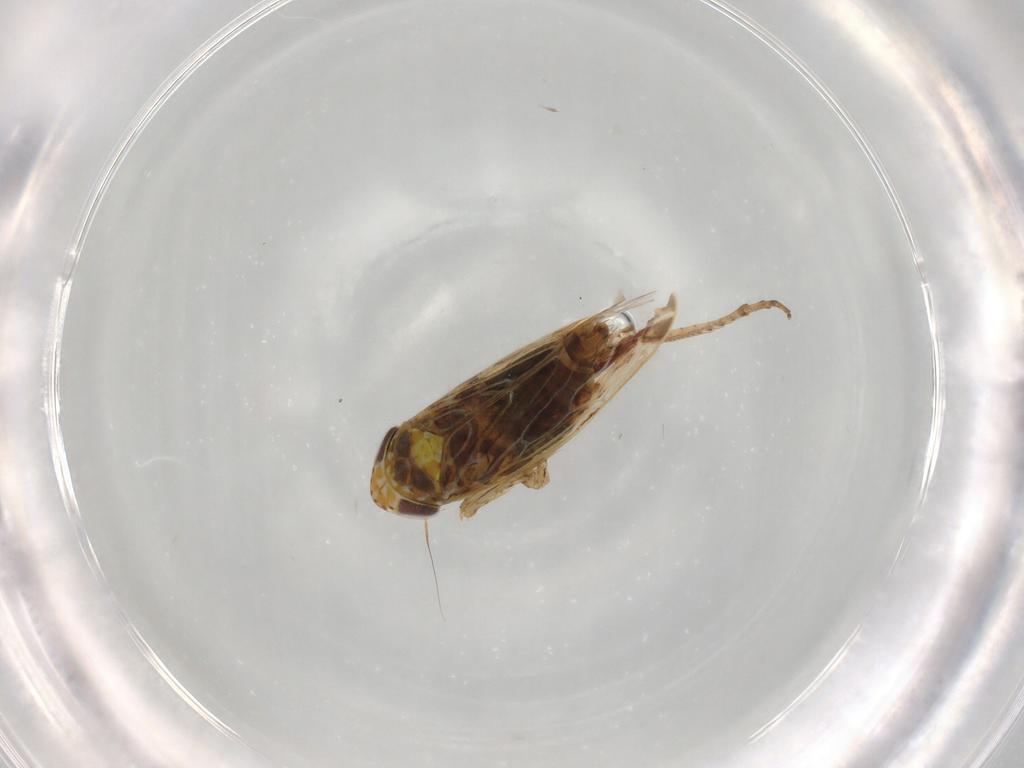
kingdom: Animalia
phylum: Arthropoda
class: Insecta
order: Hemiptera
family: Cicadellidae
